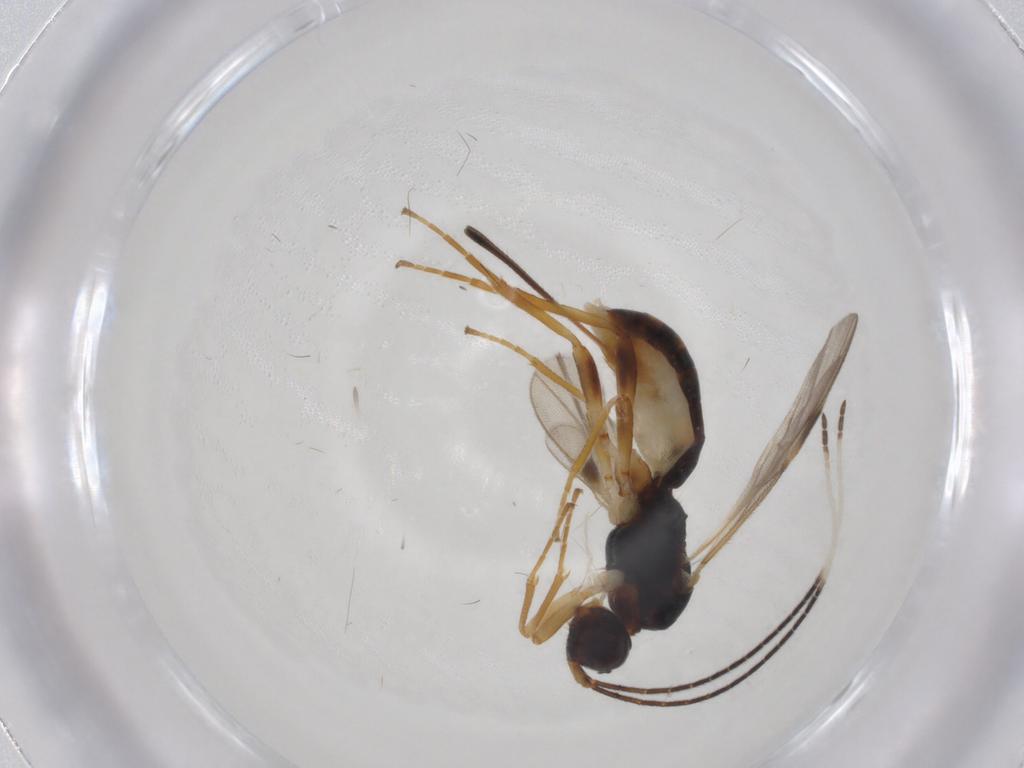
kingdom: Animalia
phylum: Arthropoda
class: Insecta
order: Hymenoptera
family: Braconidae
